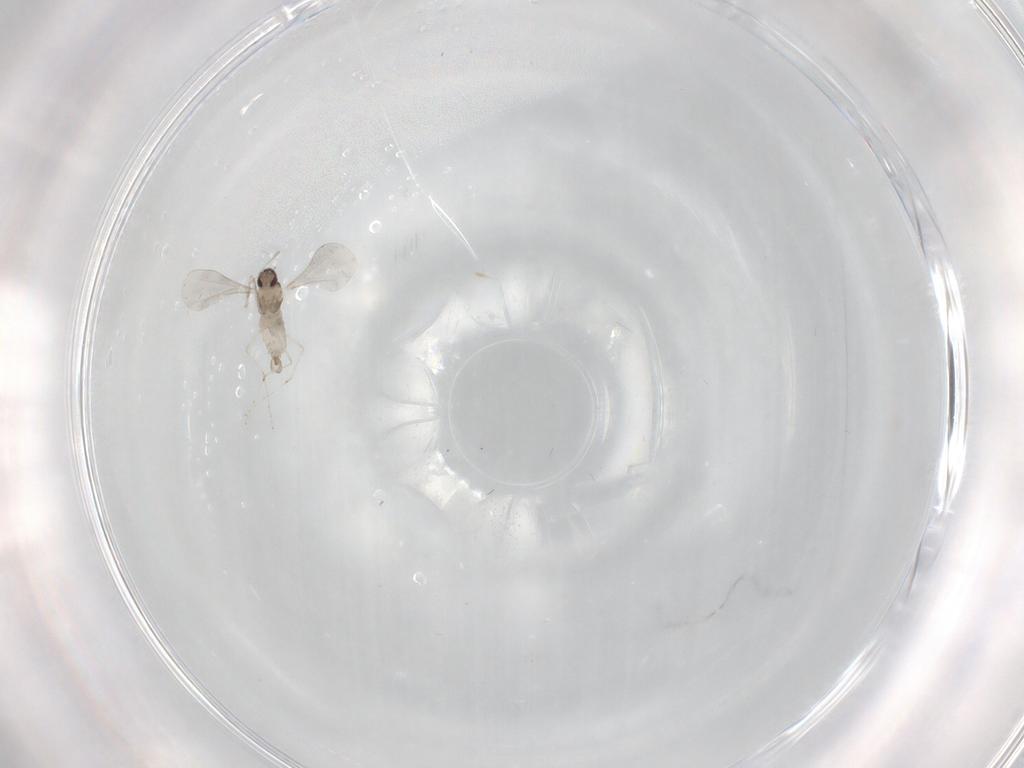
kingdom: Animalia
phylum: Arthropoda
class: Insecta
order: Diptera
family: Cecidomyiidae
